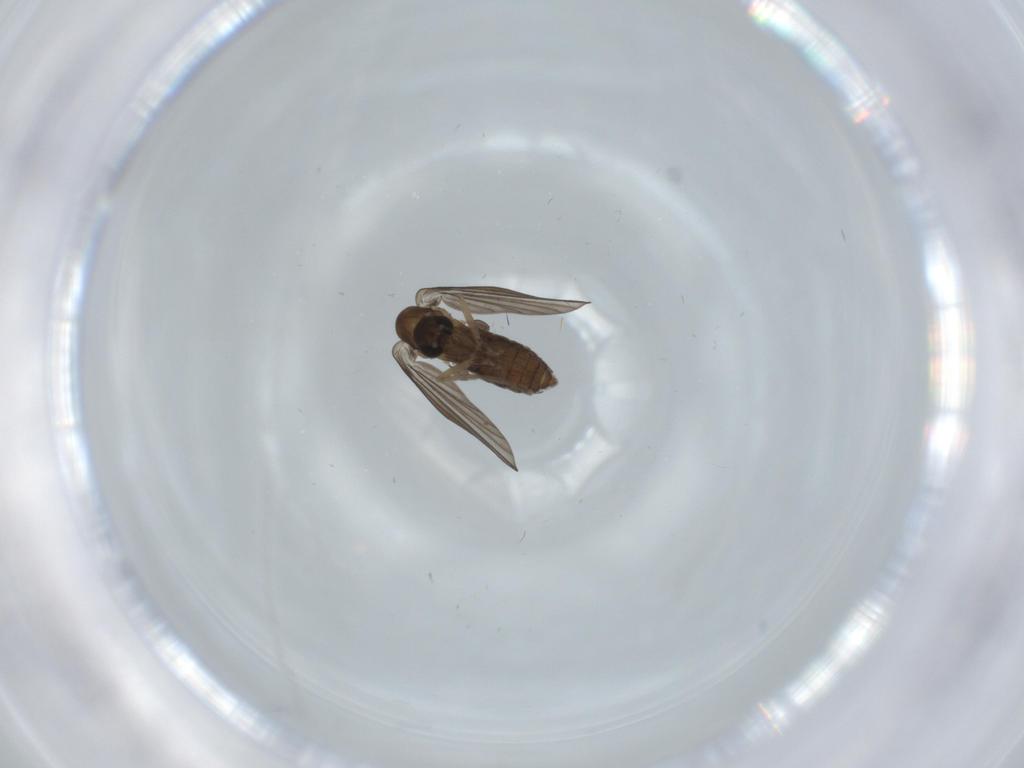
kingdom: Animalia
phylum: Arthropoda
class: Insecta
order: Diptera
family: Psychodidae
